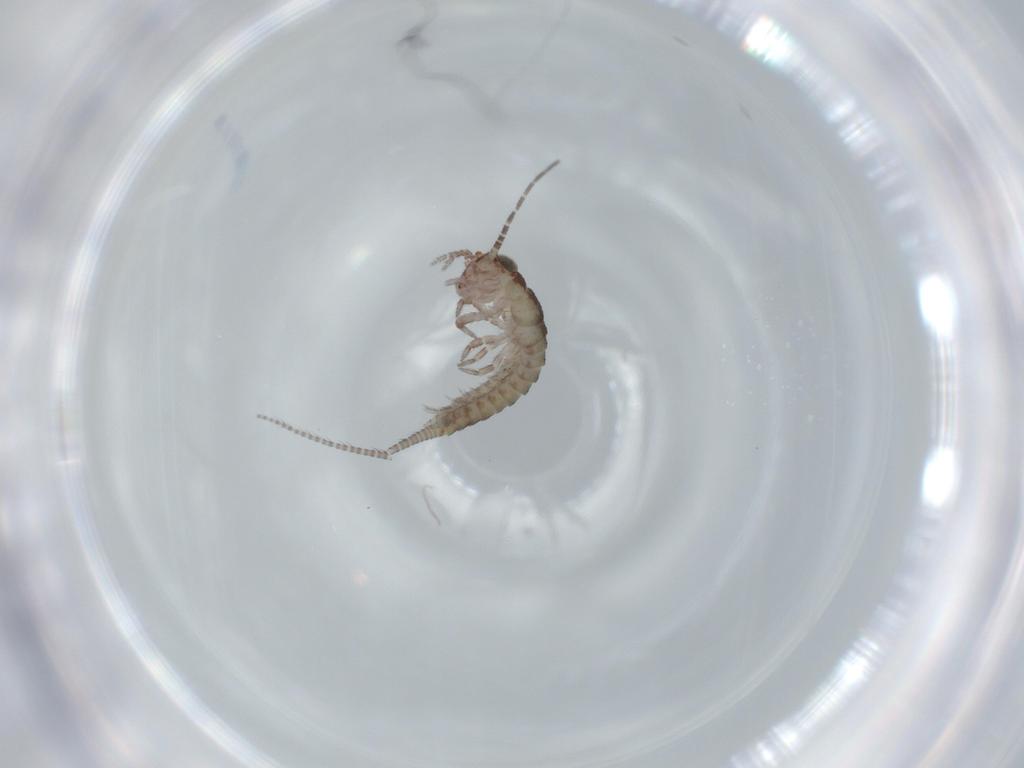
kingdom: Animalia
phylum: Arthropoda
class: Insecta
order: Archaeognatha
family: Machilidae
